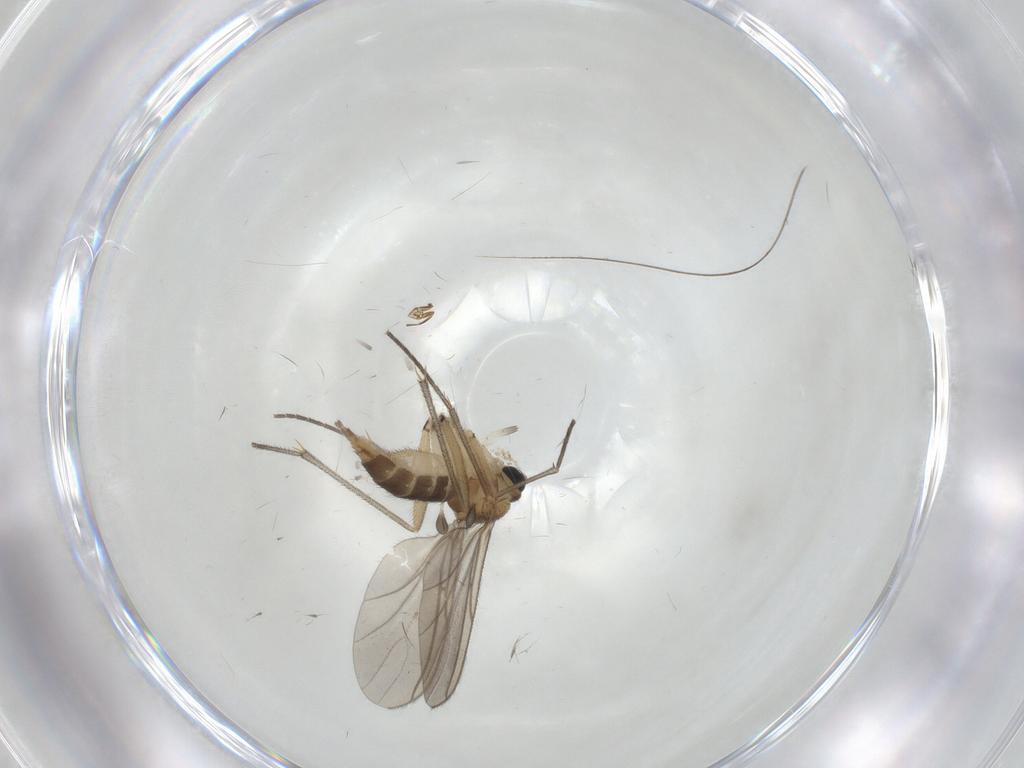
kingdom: Animalia
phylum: Arthropoda
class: Insecta
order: Diptera
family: Sciaridae
